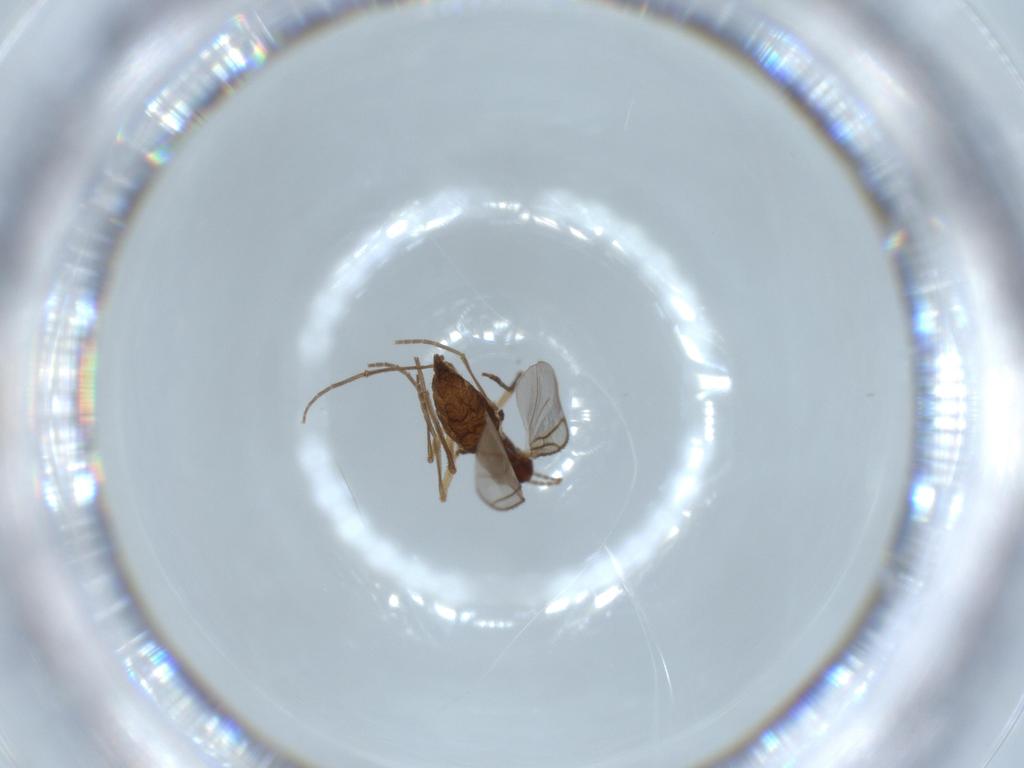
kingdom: Animalia
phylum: Arthropoda
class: Insecta
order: Diptera
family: Sciaridae
